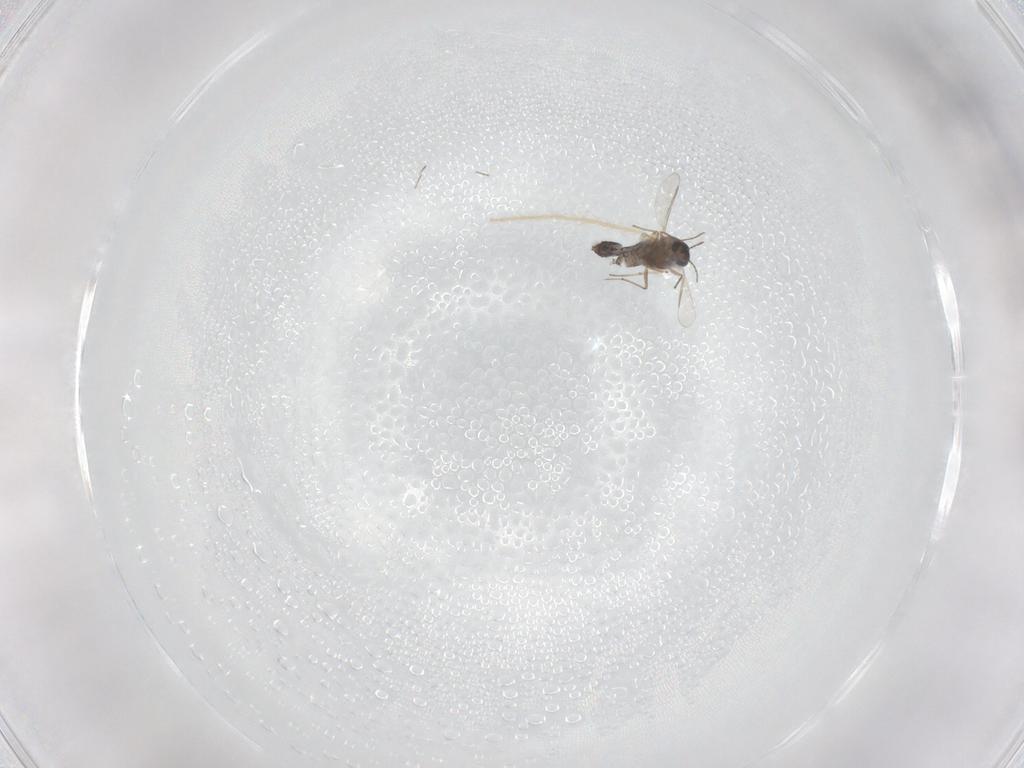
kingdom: Animalia
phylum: Arthropoda
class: Insecta
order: Diptera
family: Chironomidae
